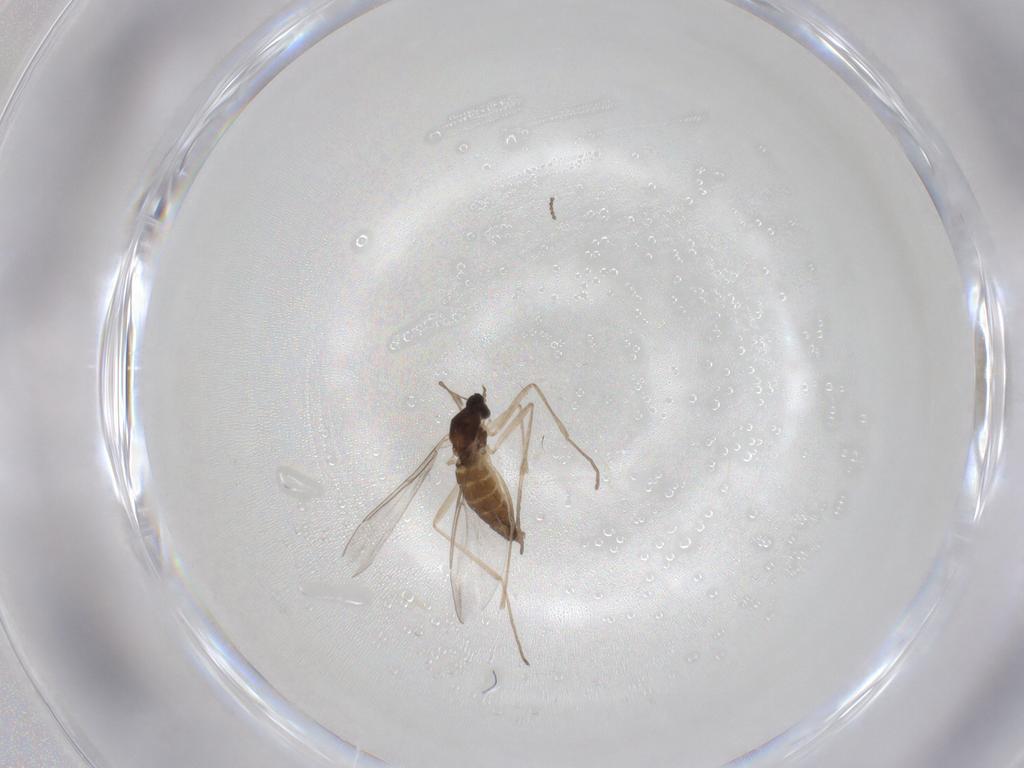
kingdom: Animalia
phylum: Arthropoda
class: Insecta
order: Diptera
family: Cecidomyiidae
